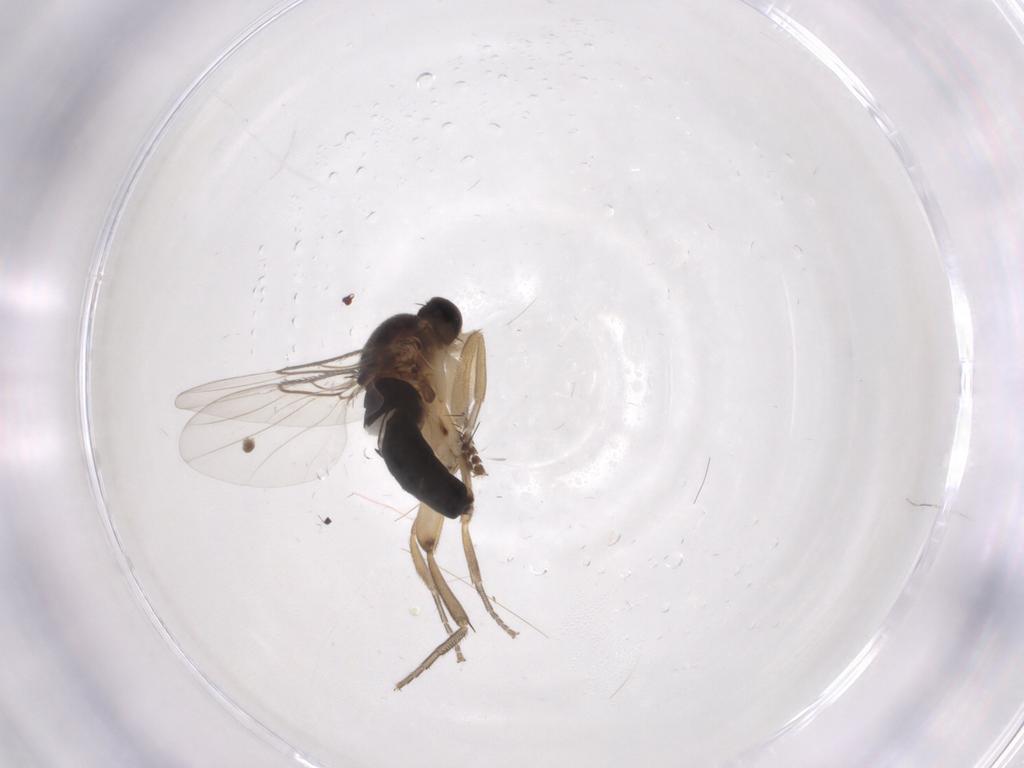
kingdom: Animalia
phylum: Arthropoda
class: Insecta
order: Diptera
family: Phoridae
